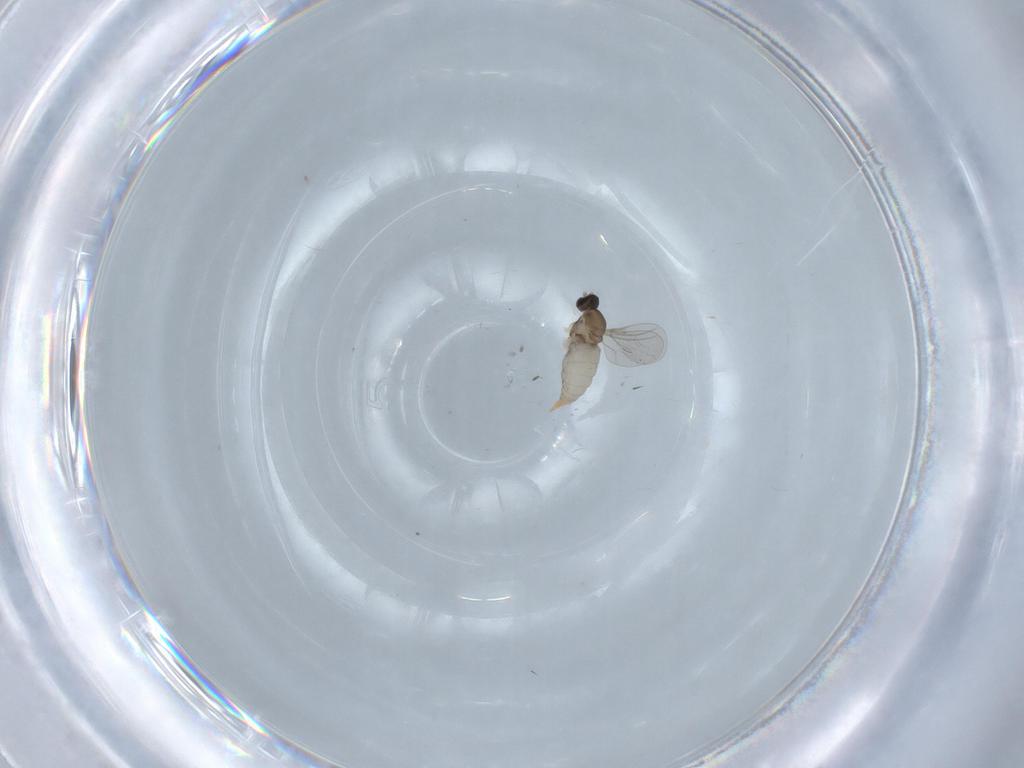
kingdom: Animalia
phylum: Arthropoda
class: Insecta
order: Diptera
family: Cecidomyiidae
